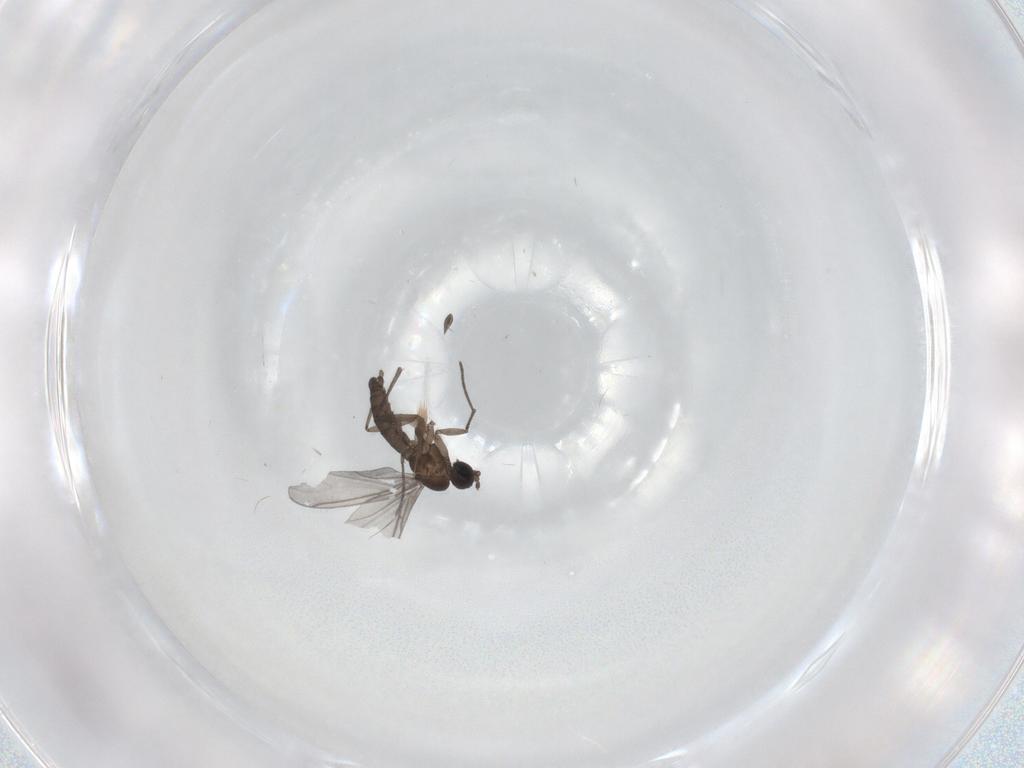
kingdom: Animalia
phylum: Arthropoda
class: Insecta
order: Diptera
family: Sciaridae
